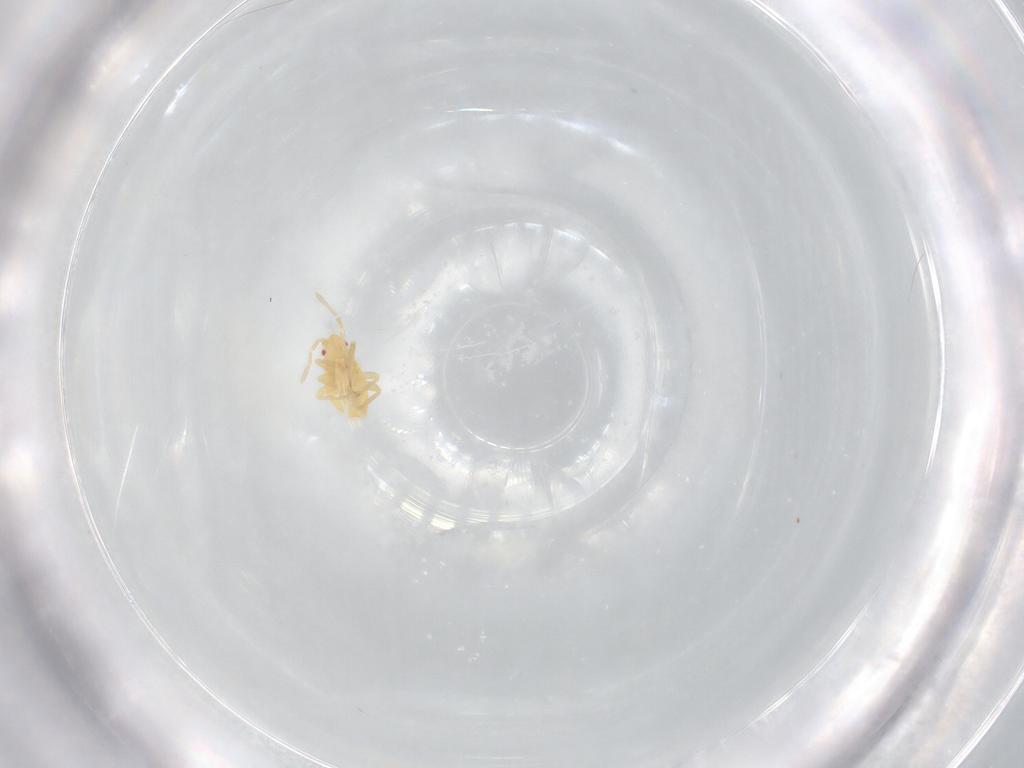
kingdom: Animalia
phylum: Arthropoda
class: Insecta
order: Hemiptera
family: Miridae
